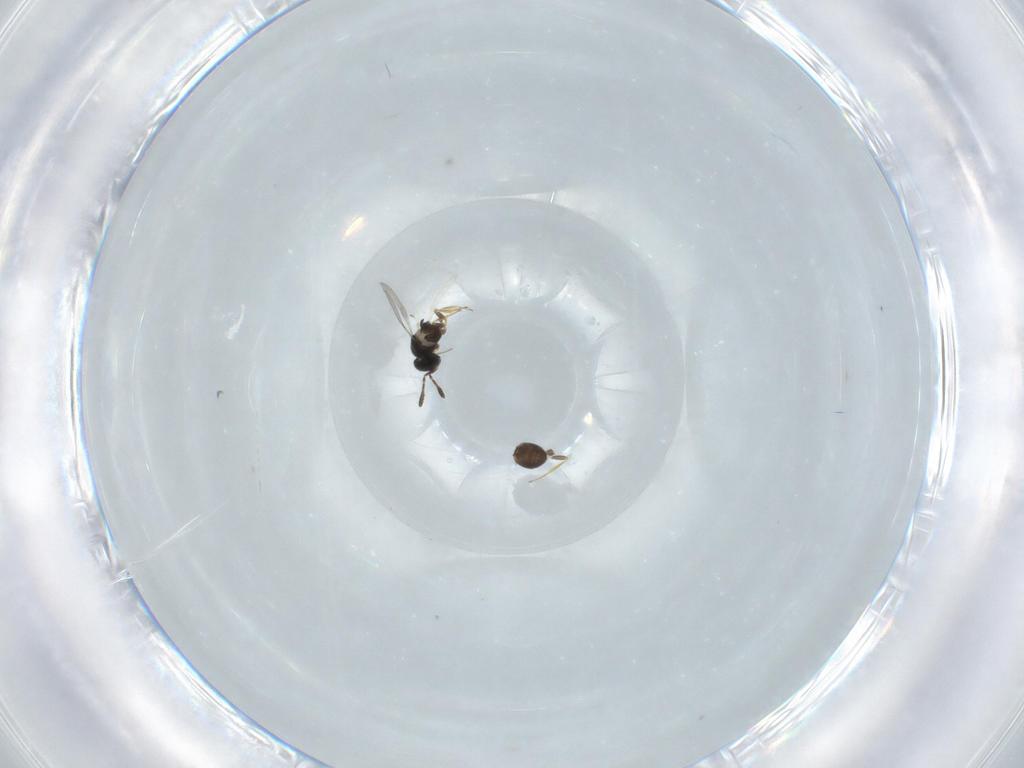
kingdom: Animalia
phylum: Arthropoda
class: Insecta
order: Hymenoptera
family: Scelionidae
